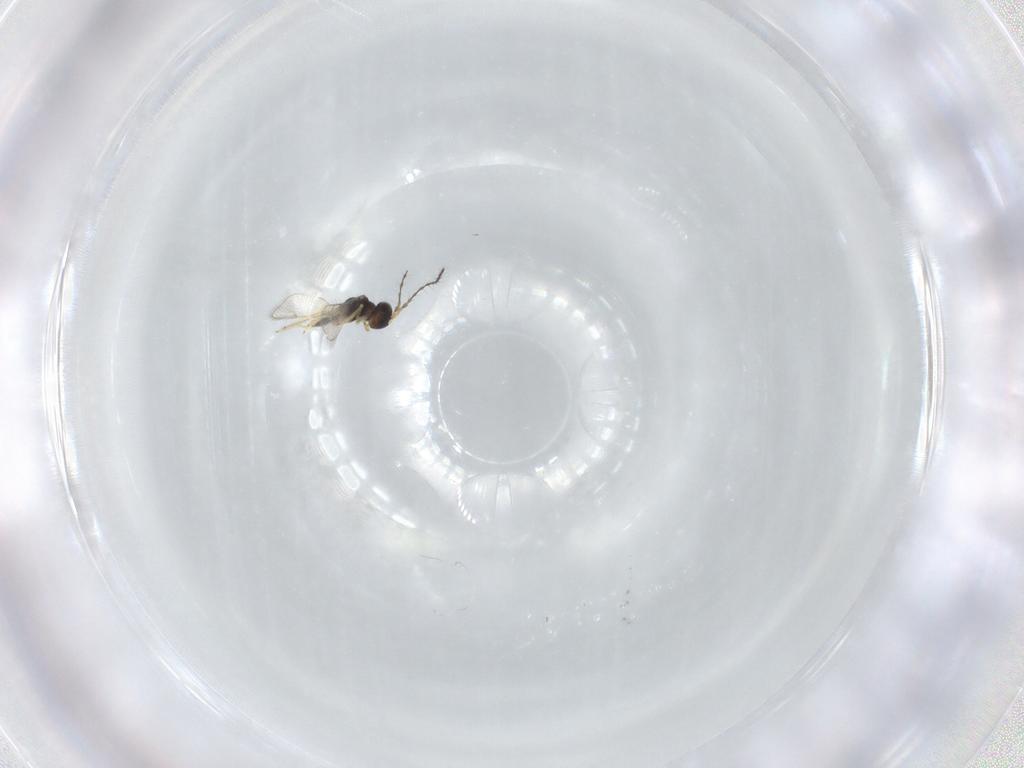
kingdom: Animalia
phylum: Arthropoda
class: Insecta
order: Hymenoptera
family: Diparidae
